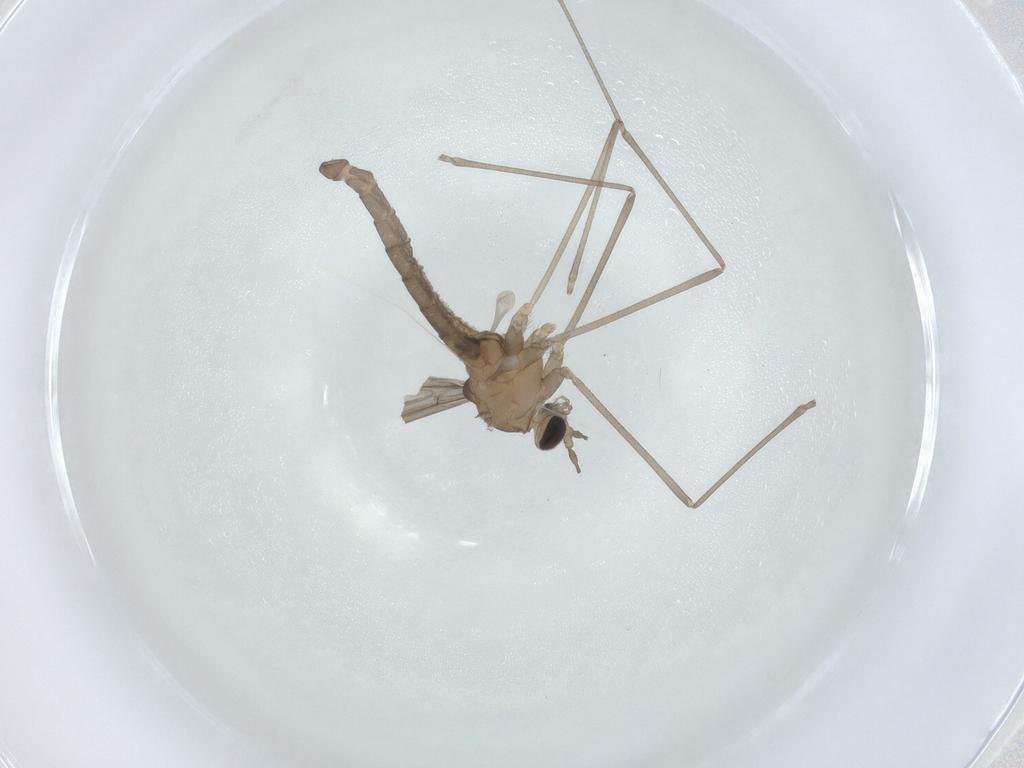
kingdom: Animalia
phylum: Arthropoda
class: Insecta
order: Diptera
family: Cecidomyiidae
